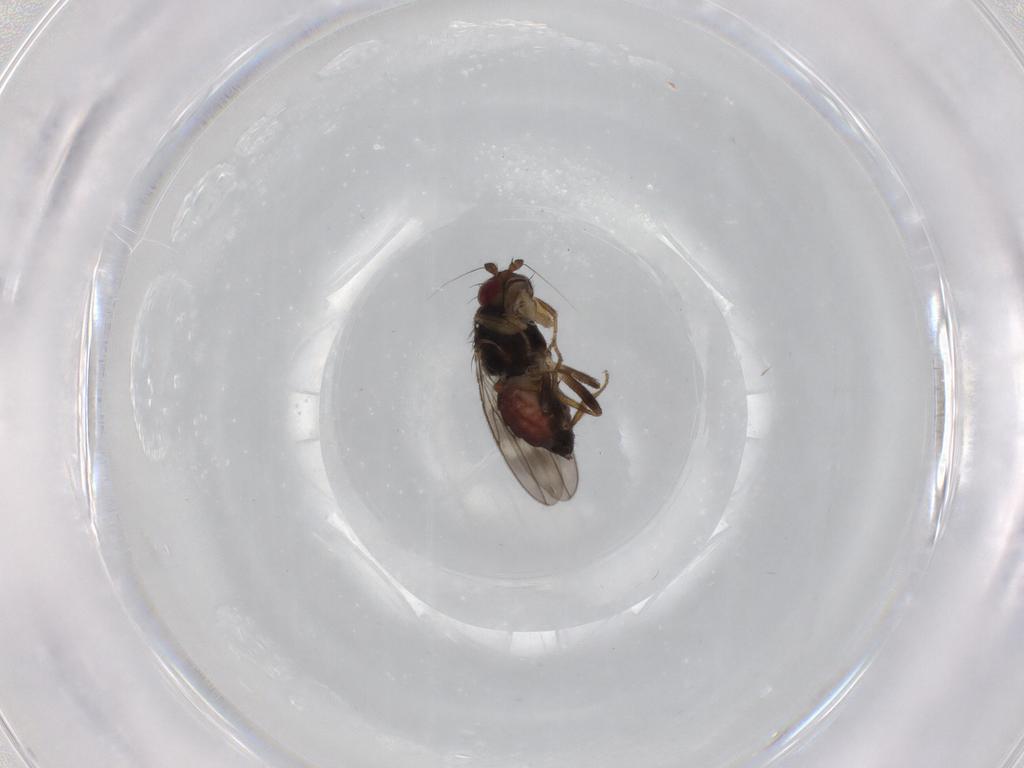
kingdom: Animalia
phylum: Arthropoda
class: Insecta
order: Diptera
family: Sphaeroceridae
